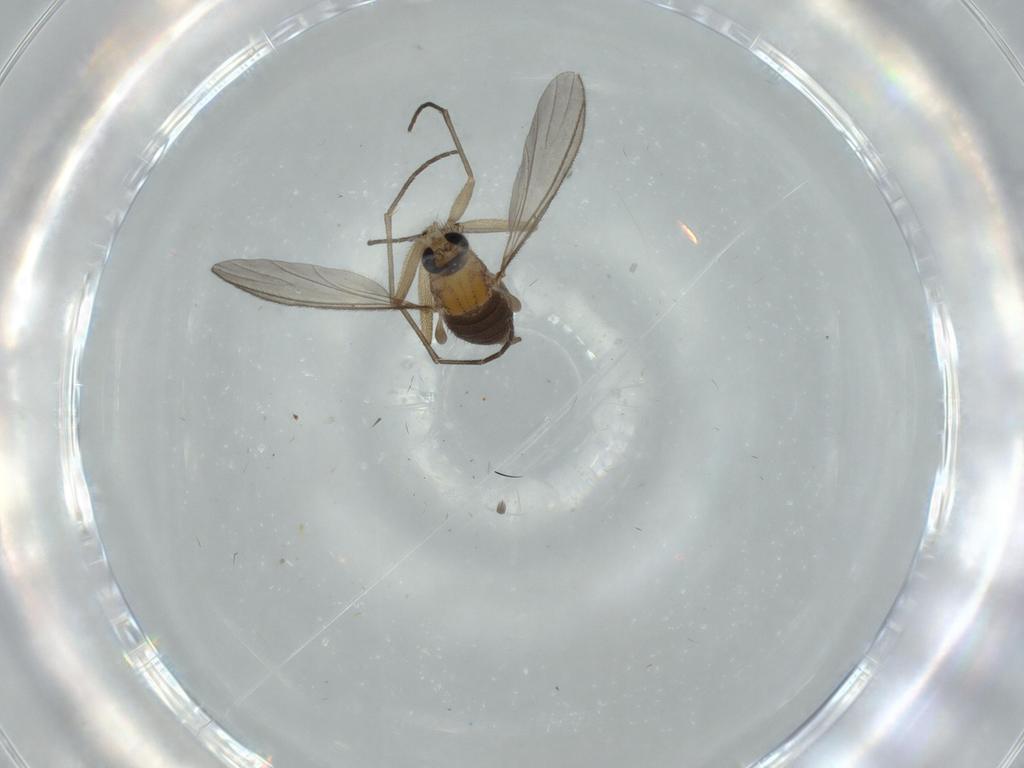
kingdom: Animalia
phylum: Arthropoda
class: Insecta
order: Diptera
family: Sciaridae
